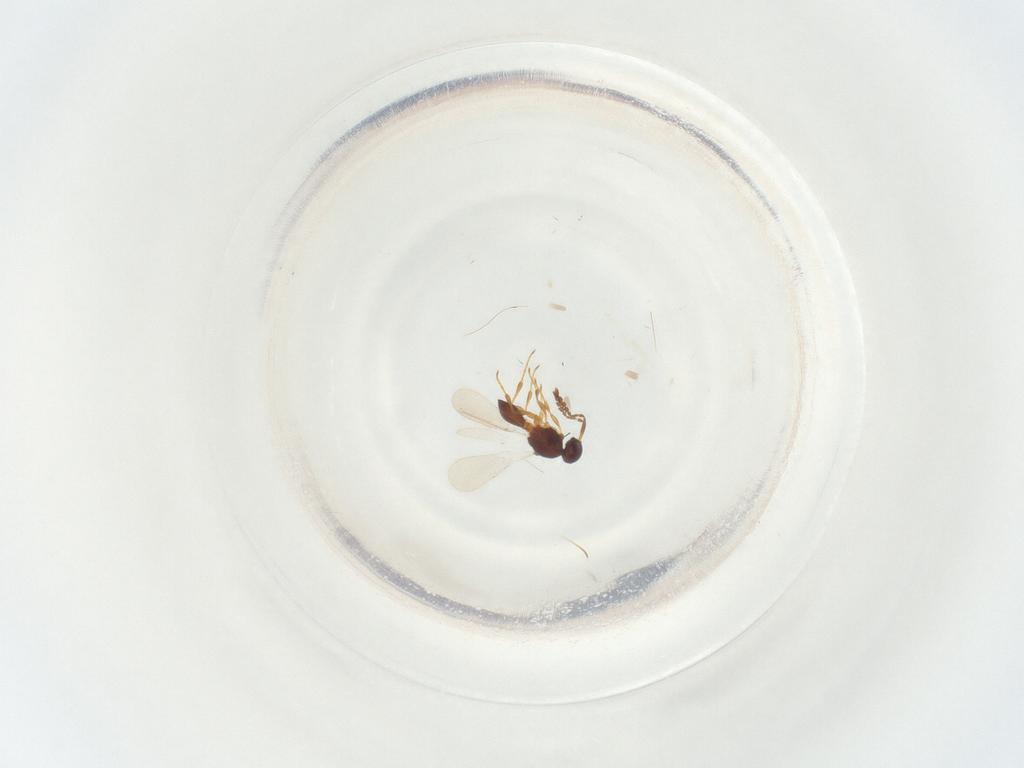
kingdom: Animalia
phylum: Arthropoda
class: Insecta
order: Hymenoptera
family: Platygastridae
